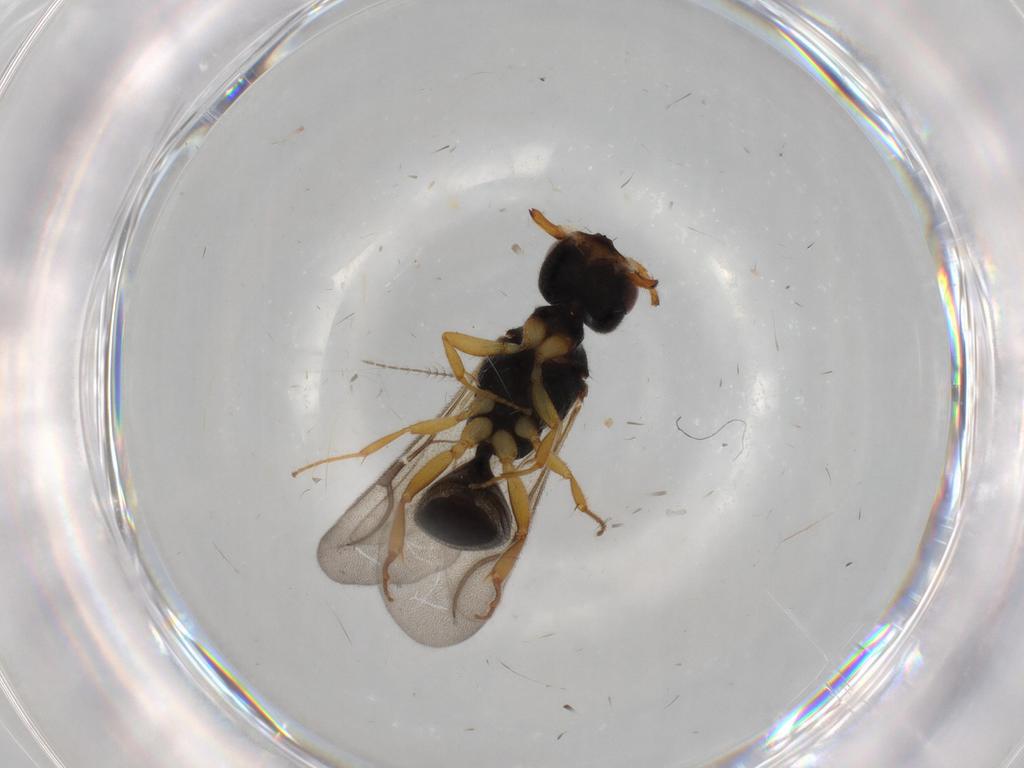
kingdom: Animalia
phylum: Arthropoda
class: Insecta
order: Hymenoptera
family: Bethylidae
